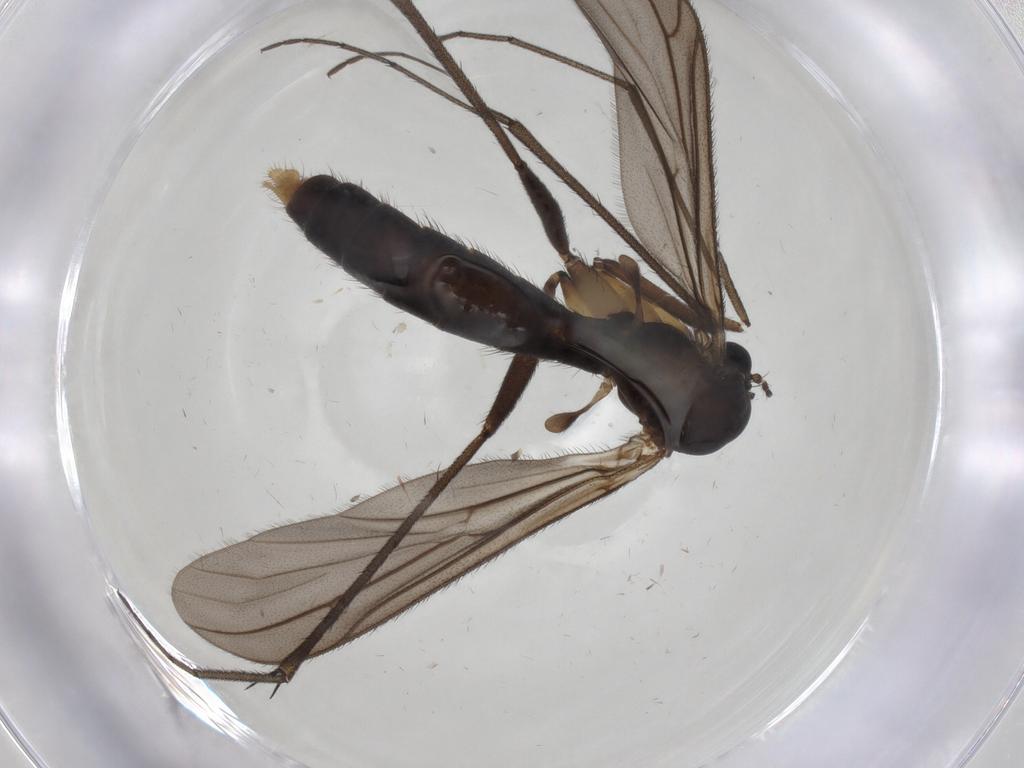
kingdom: Animalia
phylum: Arthropoda
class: Insecta
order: Diptera
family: Ditomyiidae
